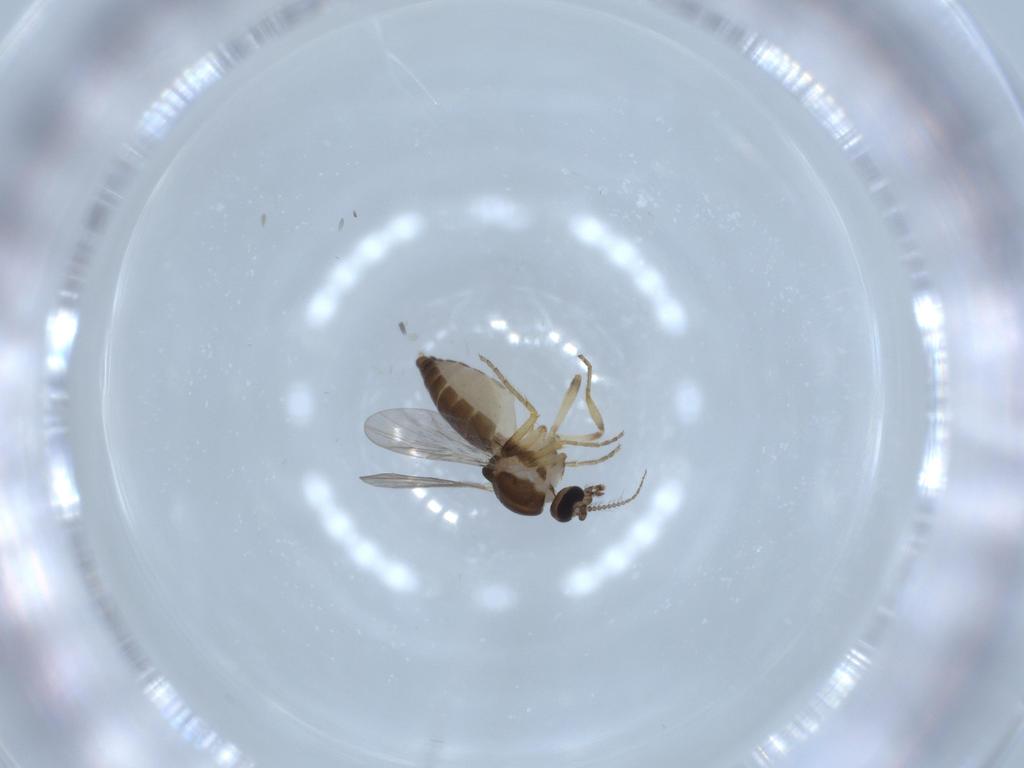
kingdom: Animalia
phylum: Arthropoda
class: Insecta
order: Diptera
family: Ceratopogonidae
